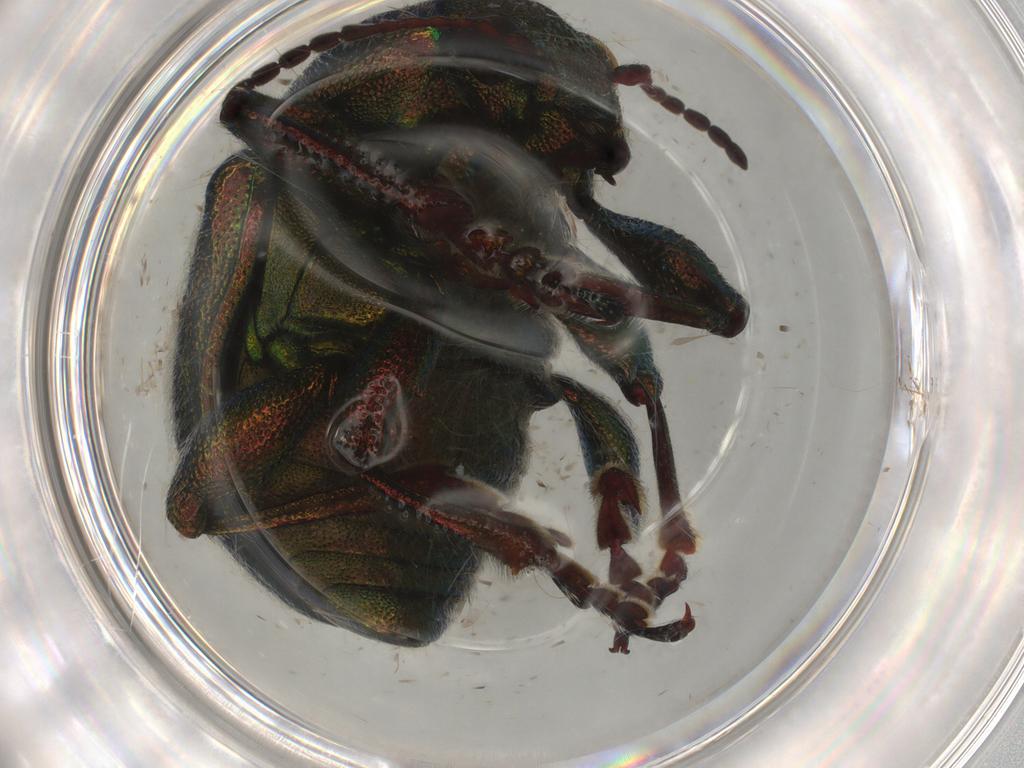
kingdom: Animalia
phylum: Arthropoda
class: Insecta
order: Coleoptera
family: Chrysomelidae
